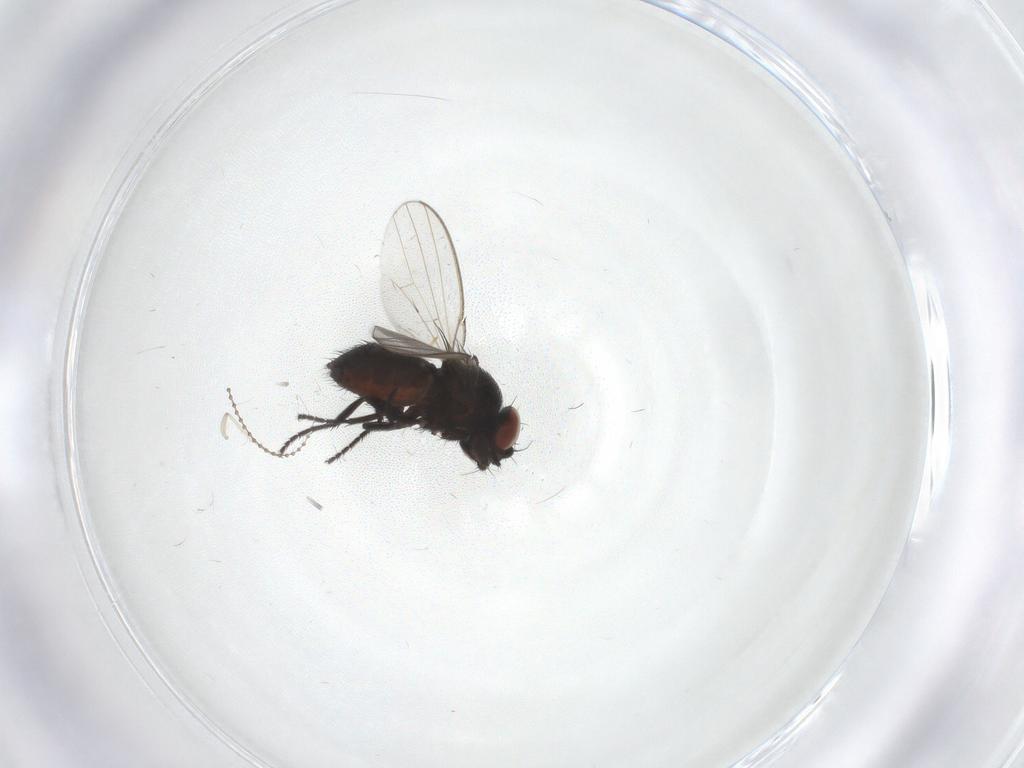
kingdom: Animalia
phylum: Arthropoda
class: Insecta
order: Diptera
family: Milichiidae
